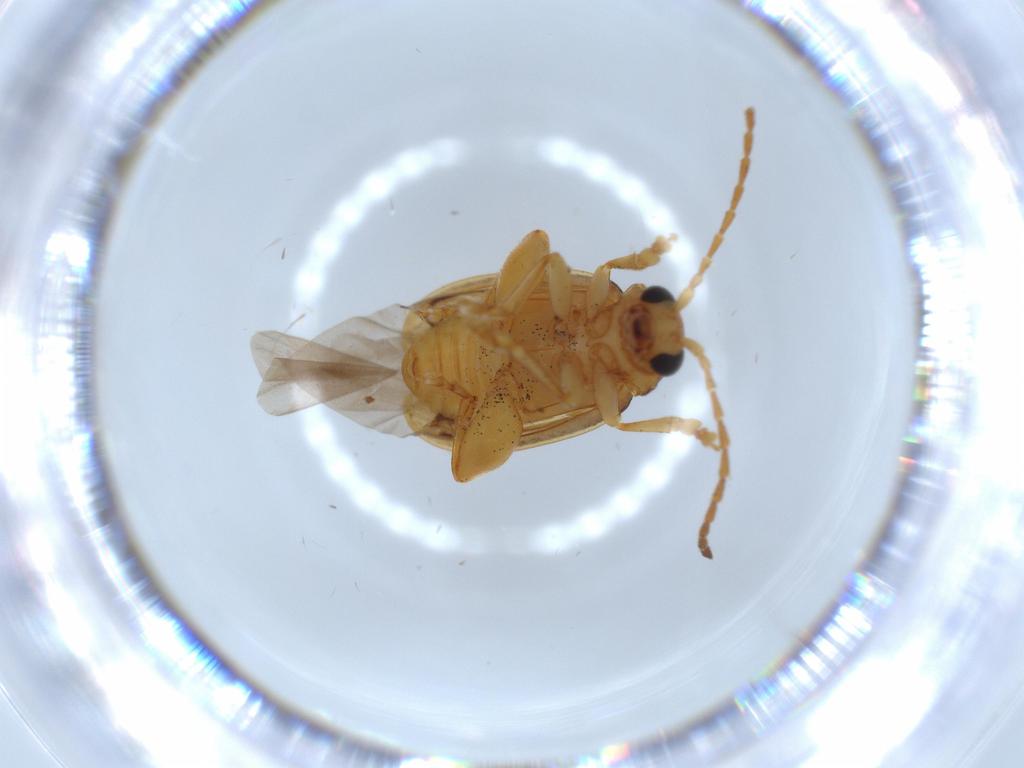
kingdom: Animalia
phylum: Arthropoda
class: Insecta
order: Coleoptera
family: Chrysomelidae
